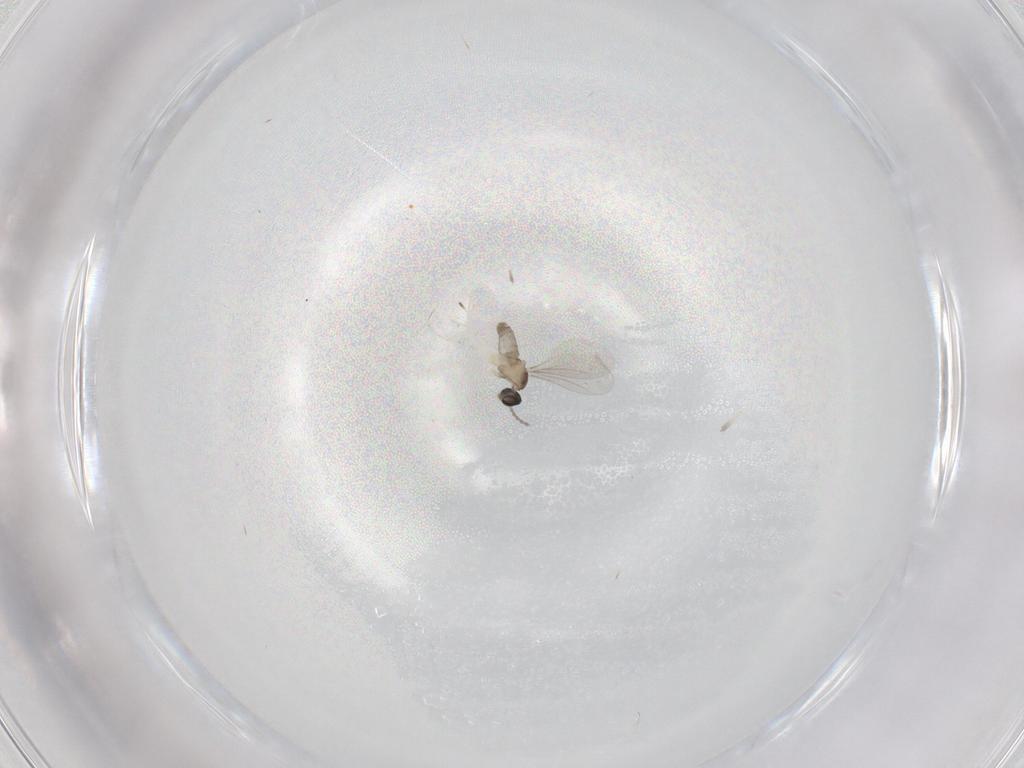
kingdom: Animalia
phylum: Arthropoda
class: Insecta
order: Diptera
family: Cecidomyiidae
